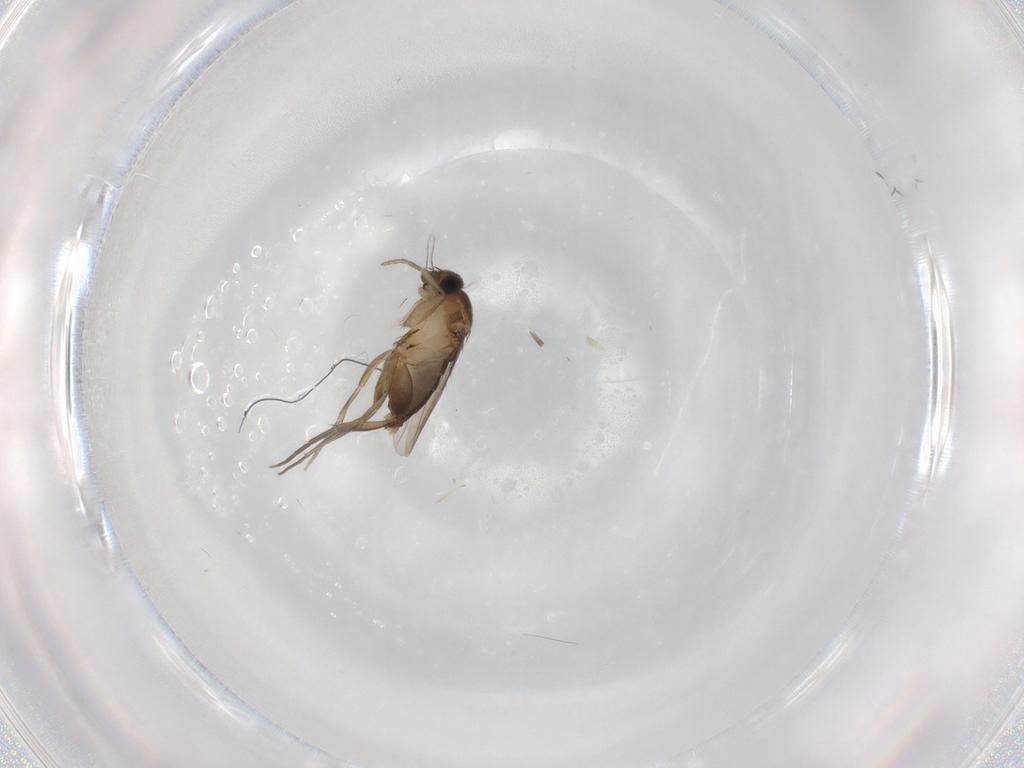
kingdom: Animalia
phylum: Arthropoda
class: Insecta
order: Diptera
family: Phoridae
